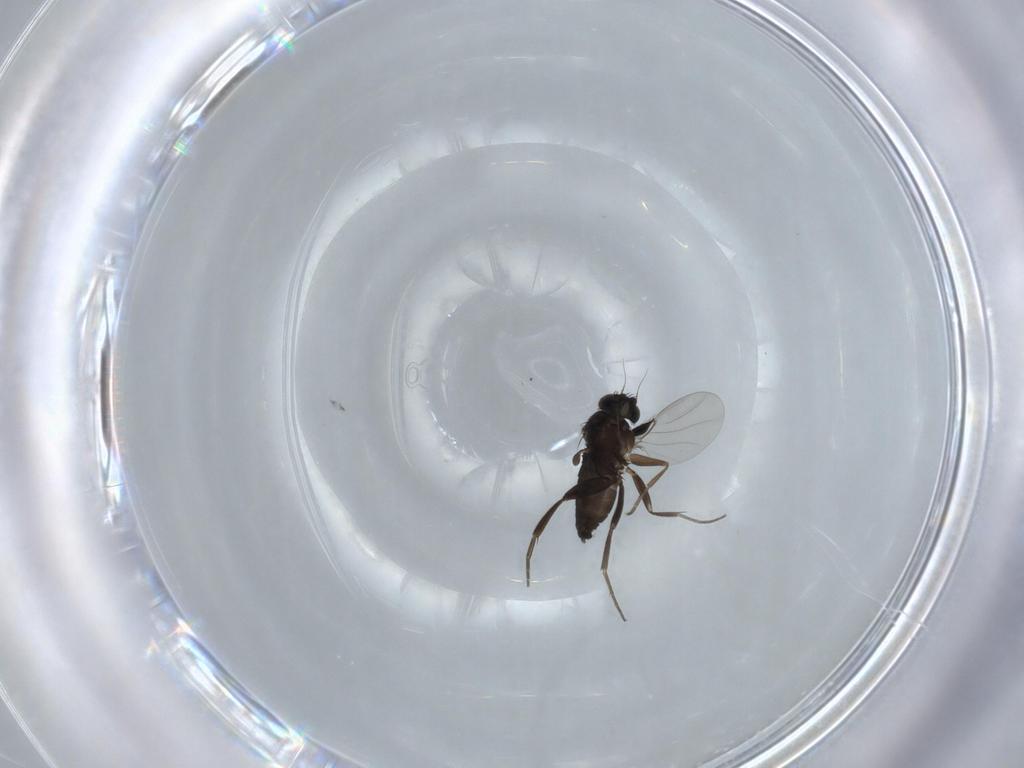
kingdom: Animalia
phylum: Arthropoda
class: Insecta
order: Diptera
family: Phoridae
